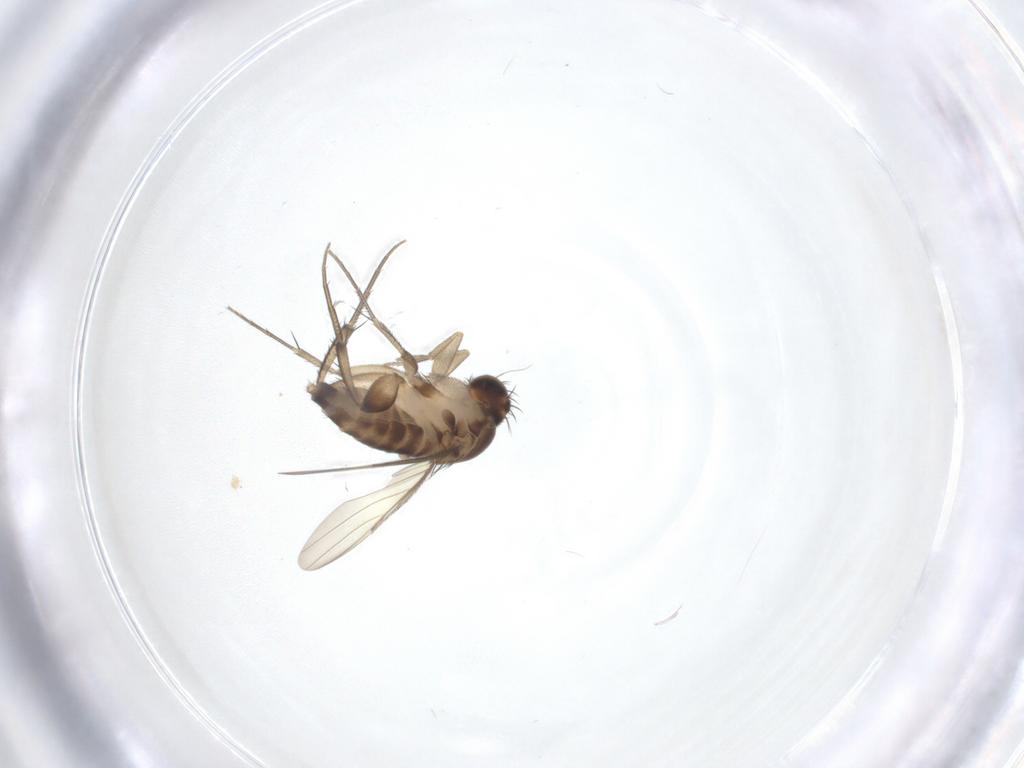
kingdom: Animalia
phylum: Arthropoda
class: Insecta
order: Diptera
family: Phoridae
